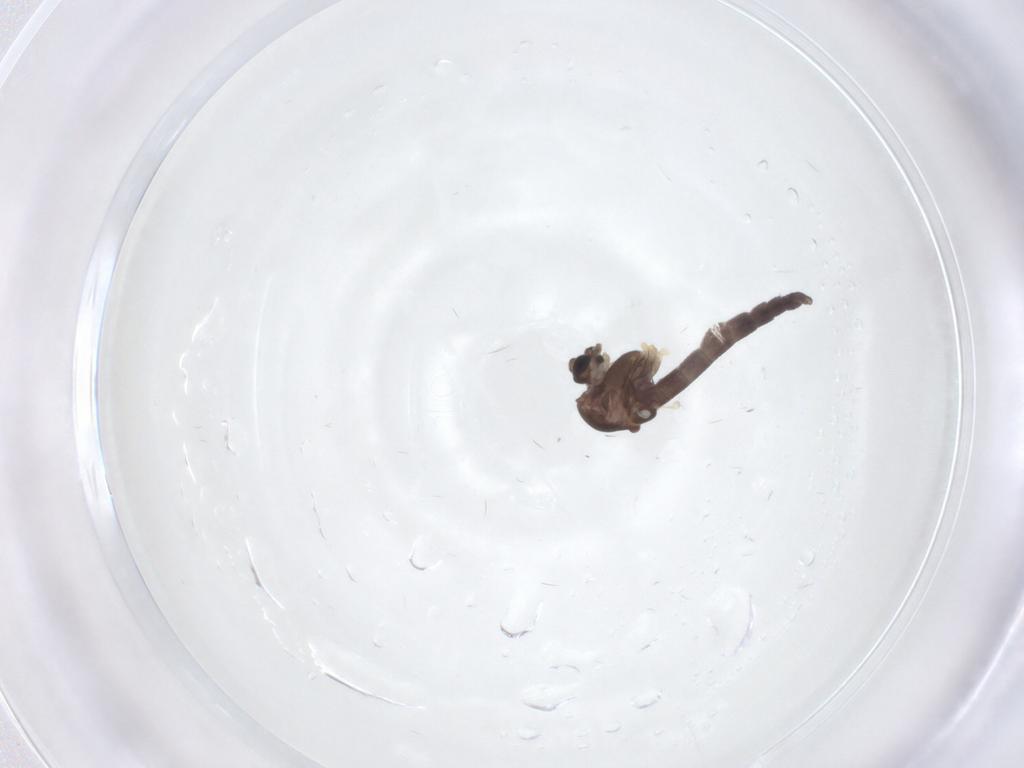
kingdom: Animalia
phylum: Arthropoda
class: Insecta
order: Diptera
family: Chironomidae
